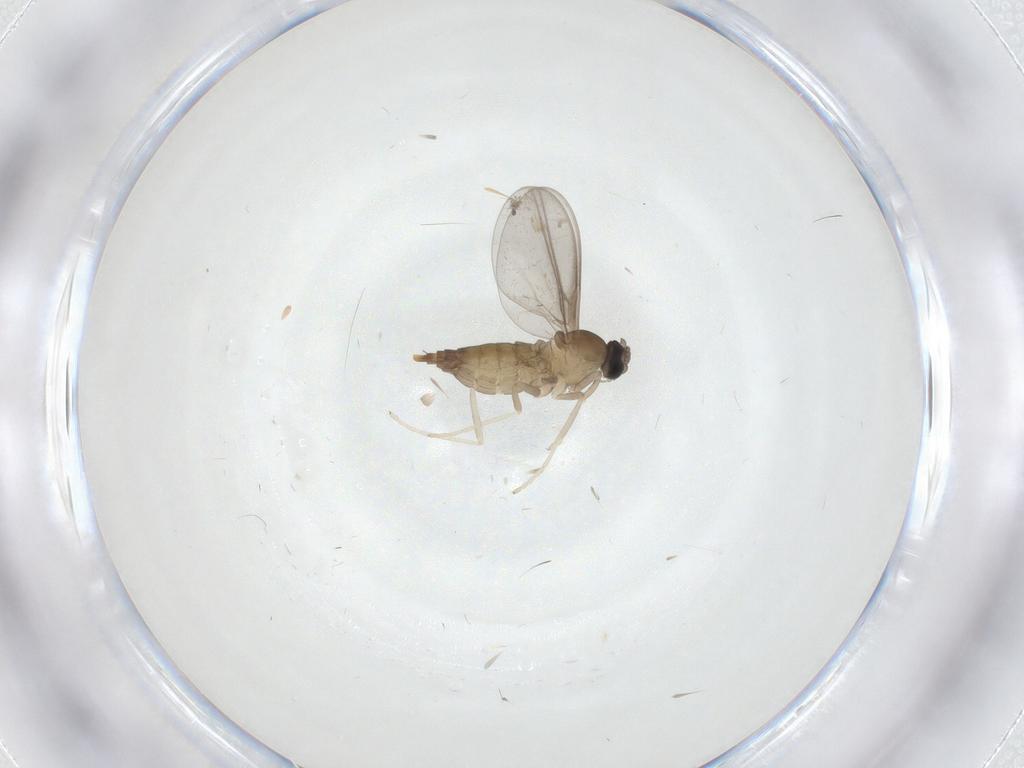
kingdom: Animalia
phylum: Arthropoda
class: Insecta
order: Diptera
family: Cecidomyiidae
